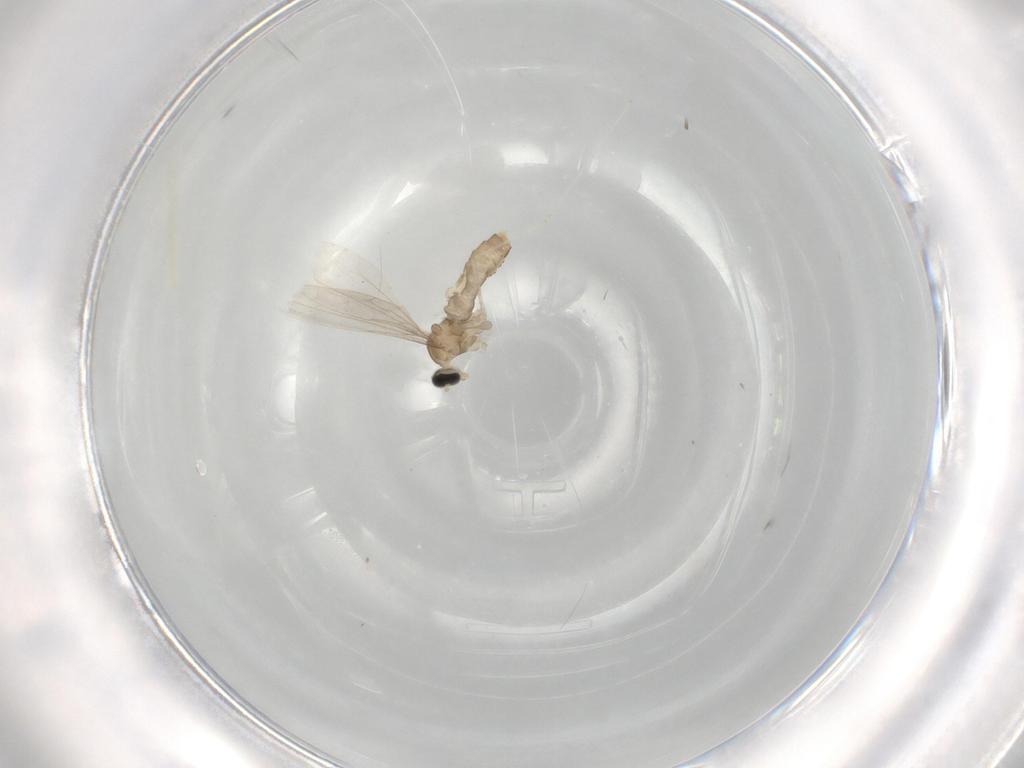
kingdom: Animalia
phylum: Arthropoda
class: Insecta
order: Diptera
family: Cecidomyiidae
